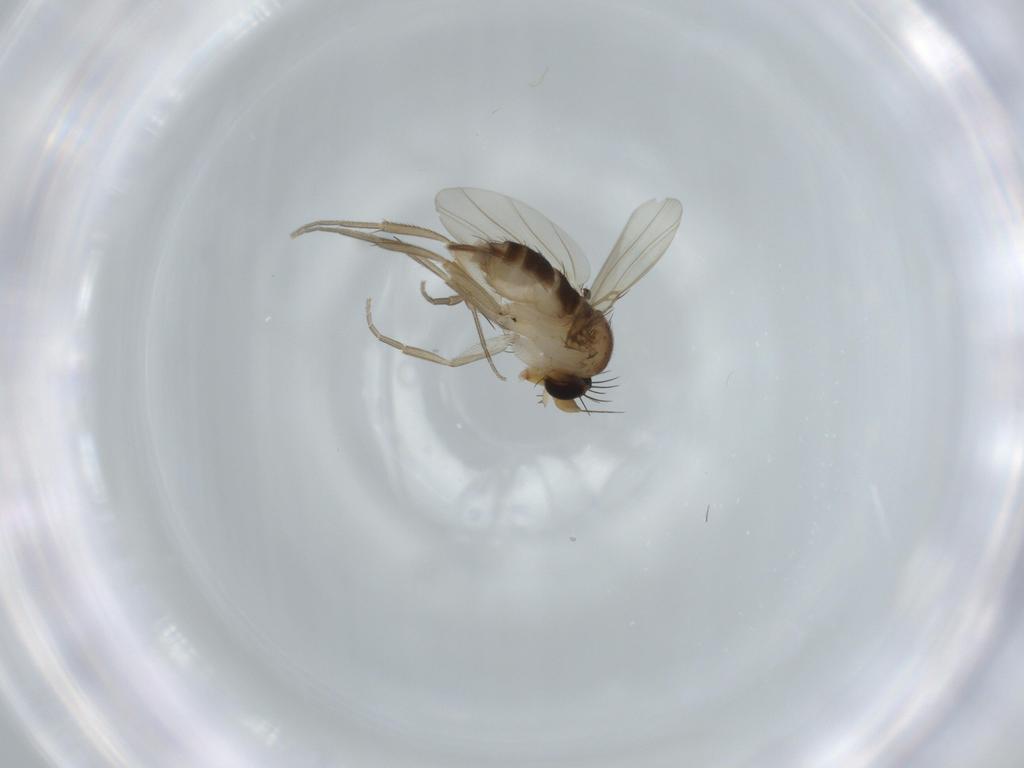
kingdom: Animalia
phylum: Arthropoda
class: Insecta
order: Diptera
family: Phoridae
